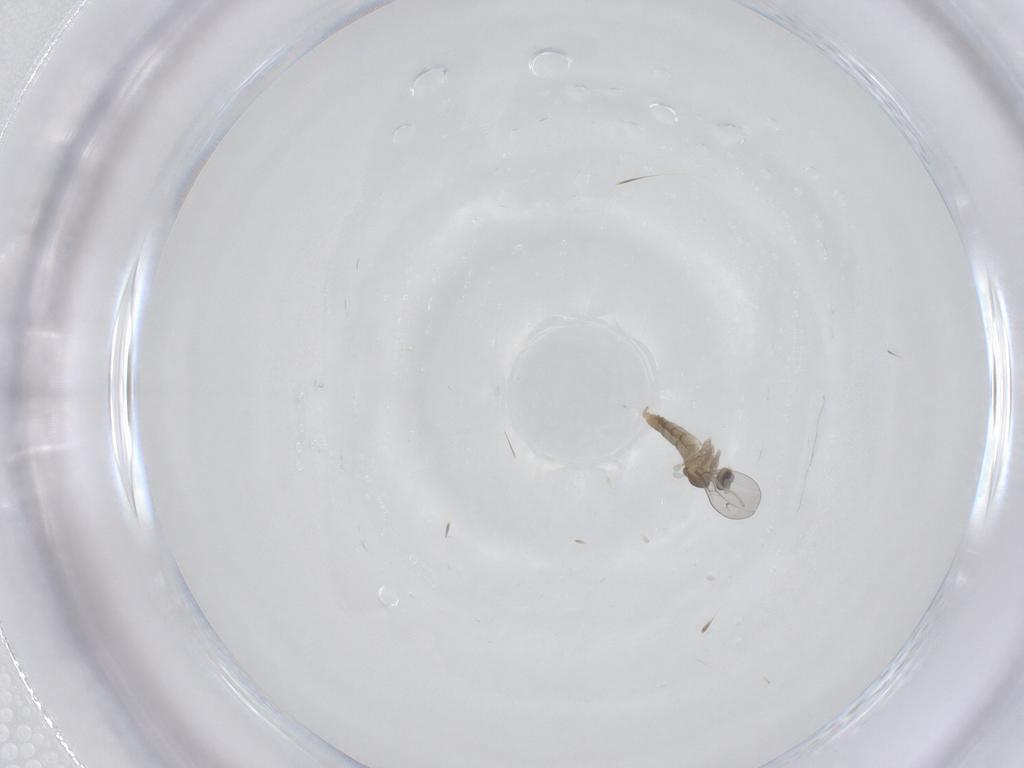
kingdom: Animalia
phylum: Arthropoda
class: Insecta
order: Diptera
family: Cecidomyiidae
